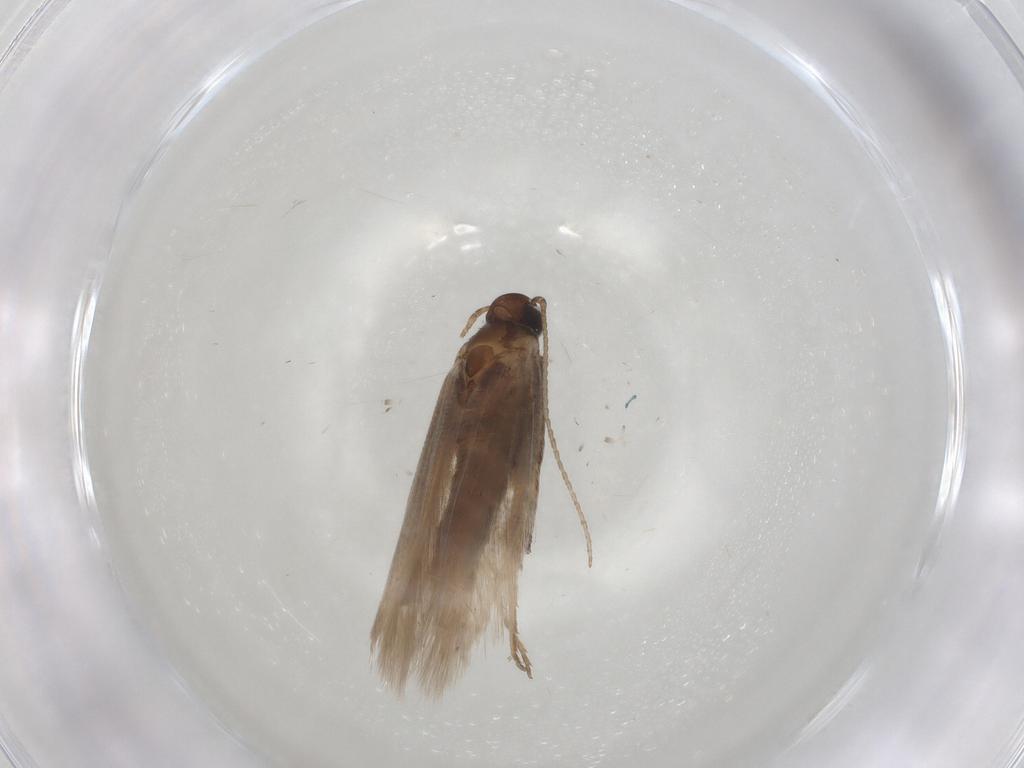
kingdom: Animalia
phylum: Arthropoda
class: Insecta
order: Lepidoptera
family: Gelechiidae
